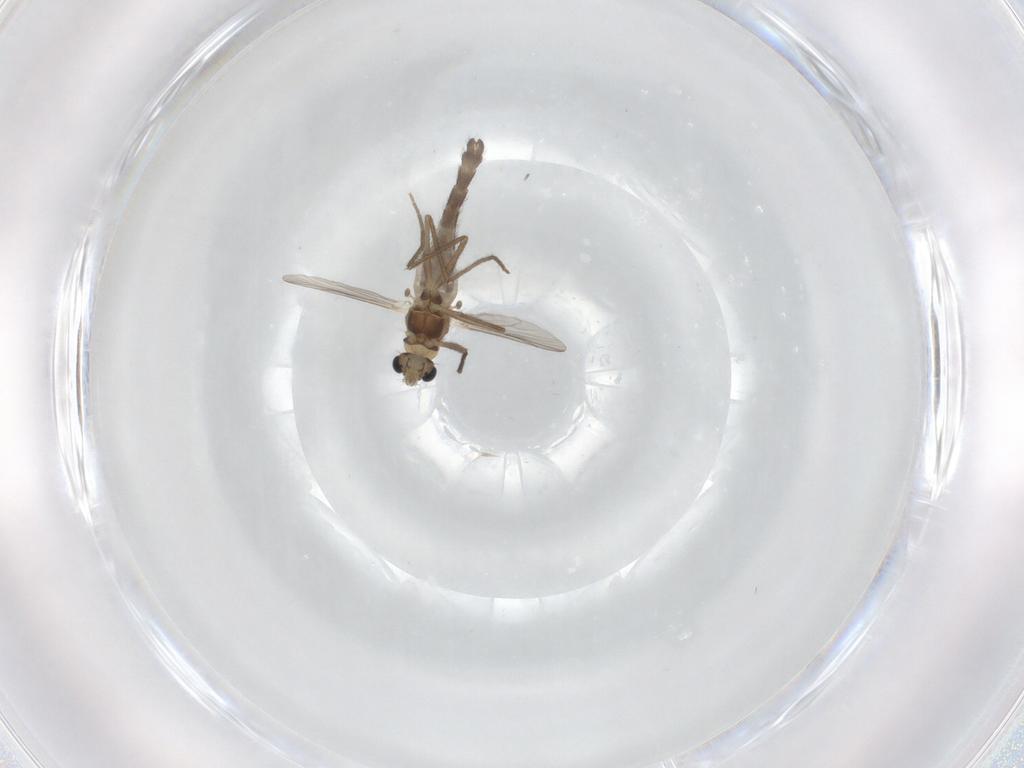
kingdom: Animalia
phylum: Arthropoda
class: Insecta
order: Diptera
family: Chironomidae
